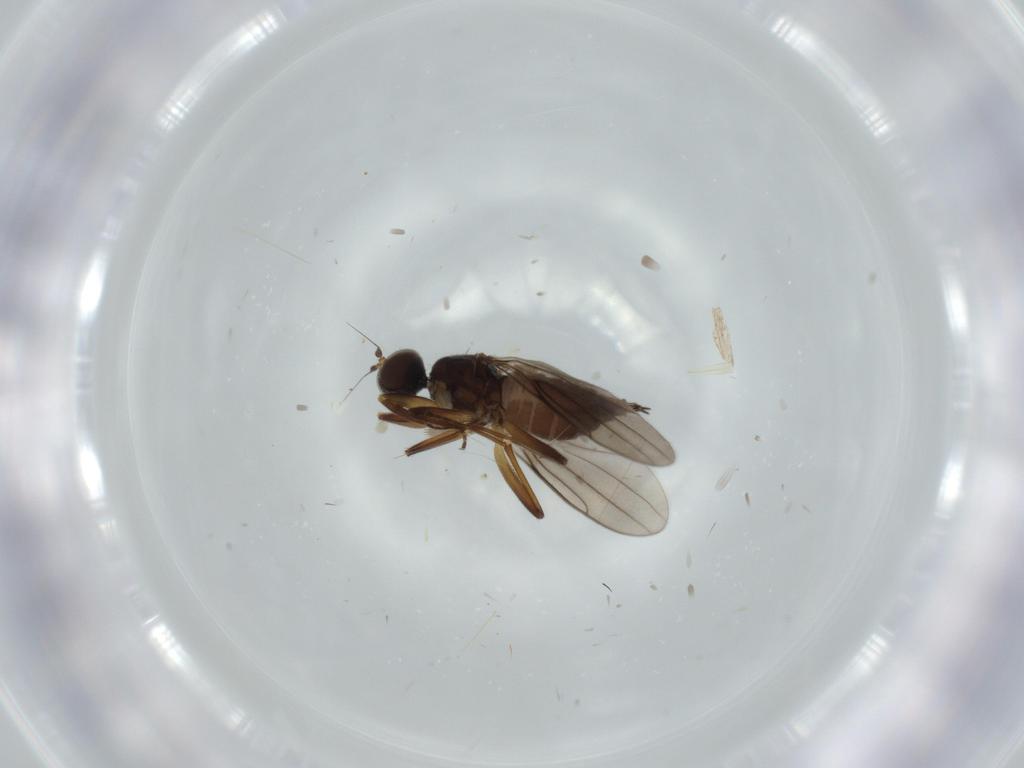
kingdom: Animalia
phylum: Arthropoda
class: Insecta
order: Diptera
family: Hybotidae
